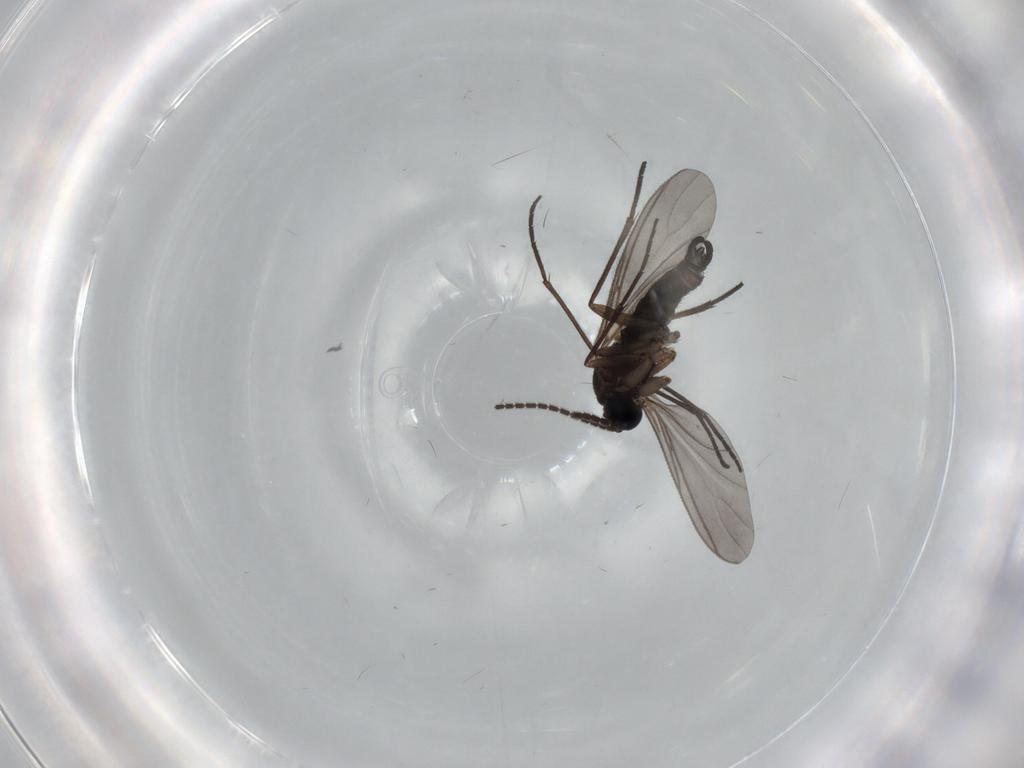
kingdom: Animalia
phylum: Arthropoda
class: Insecta
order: Diptera
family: Sciaridae
